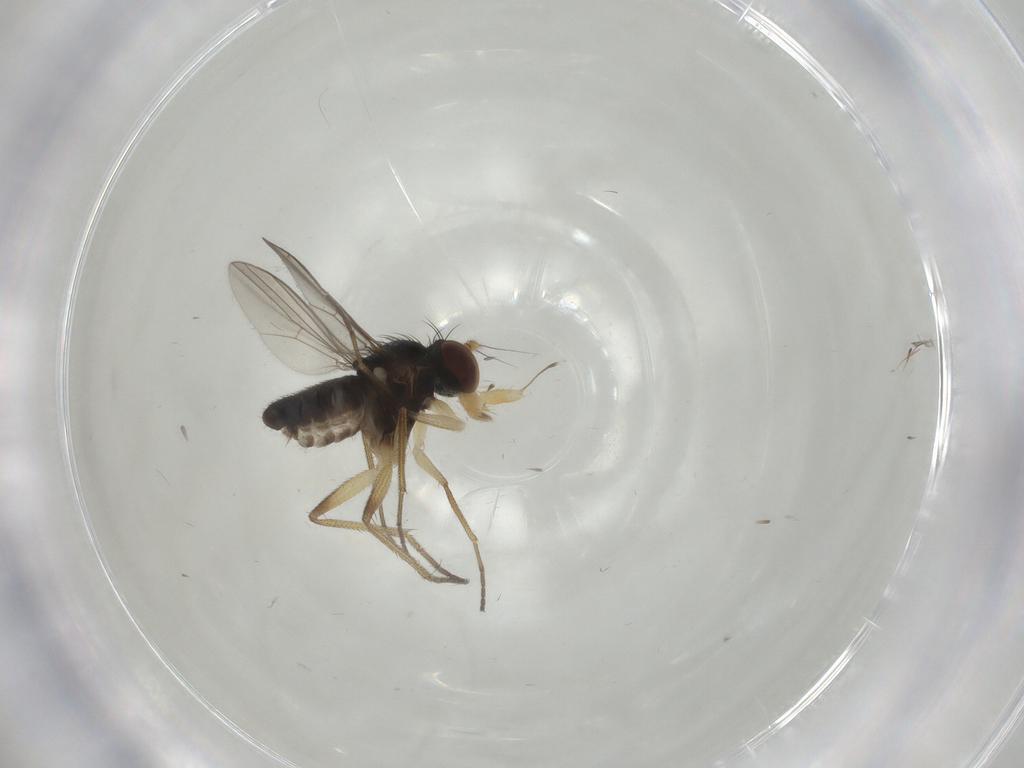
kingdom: Animalia
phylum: Arthropoda
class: Insecta
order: Diptera
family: Dolichopodidae
